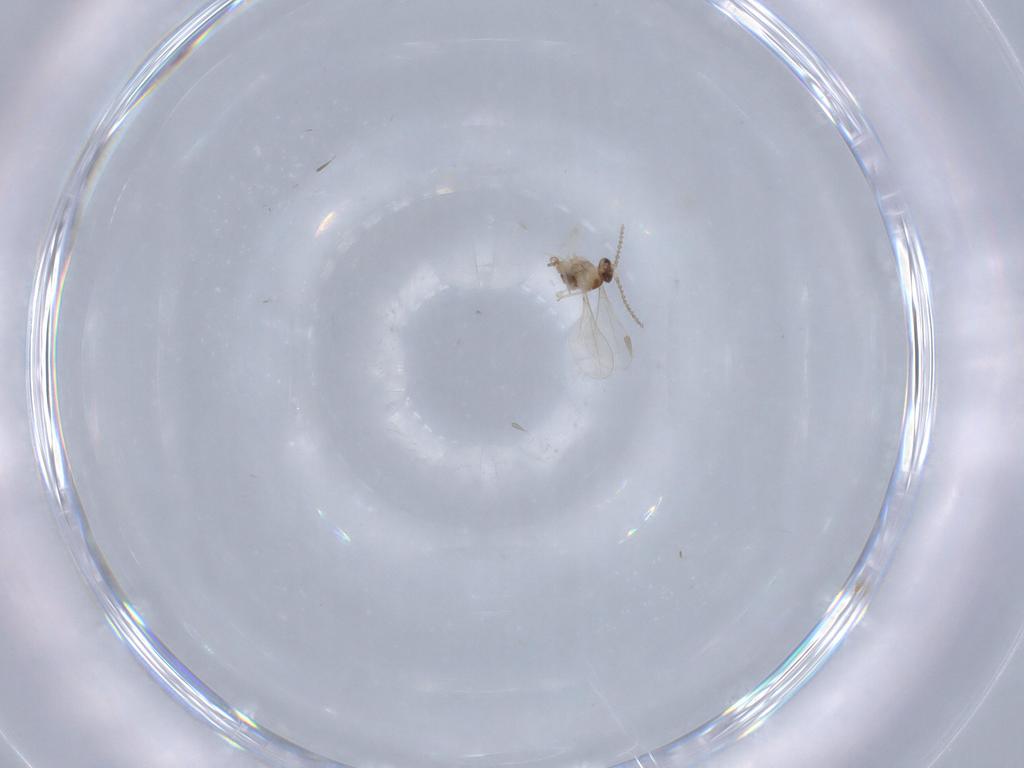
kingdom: Animalia
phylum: Arthropoda
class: Insecta
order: Diptera
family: Cecidomyiidae
